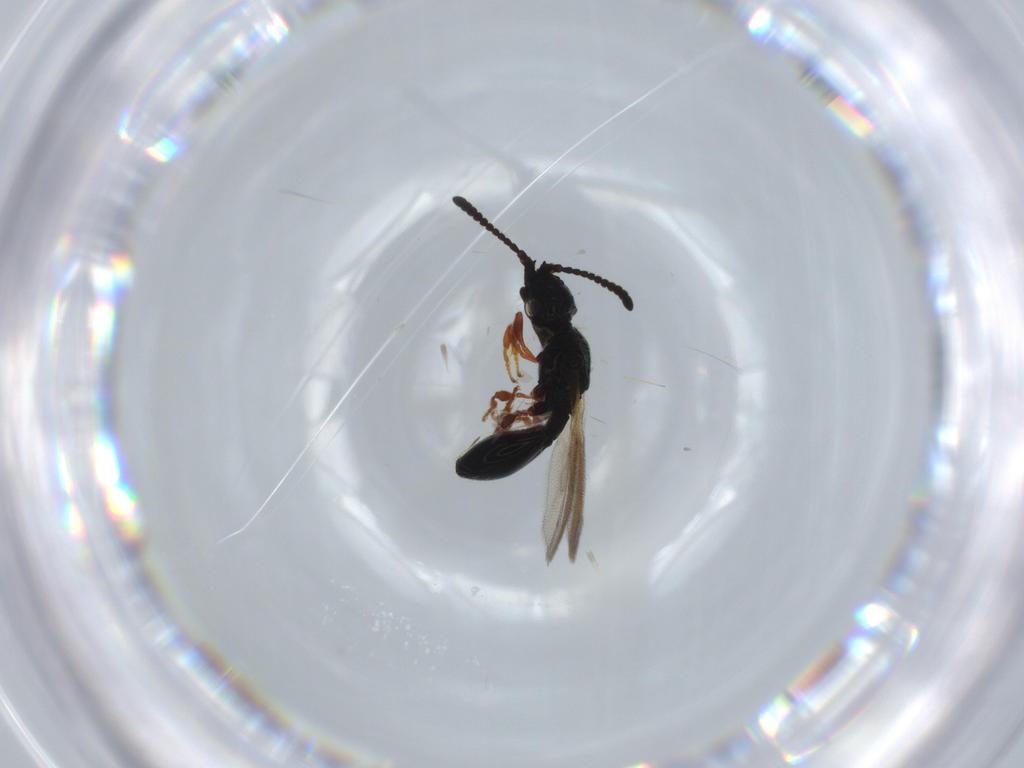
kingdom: Animalia
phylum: Arthropoda
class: Insecta
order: Hymenoptera
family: Diapriidae
